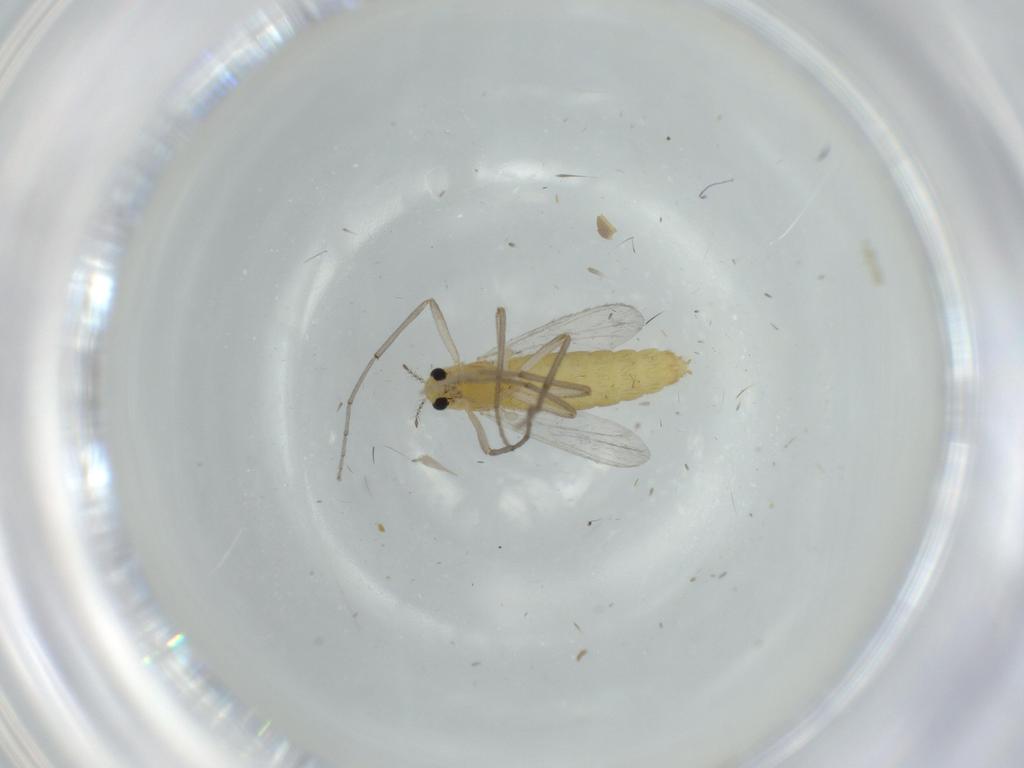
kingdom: Animalia
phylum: Arthropoda
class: Insecta
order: Diptera
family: Chironomidae
